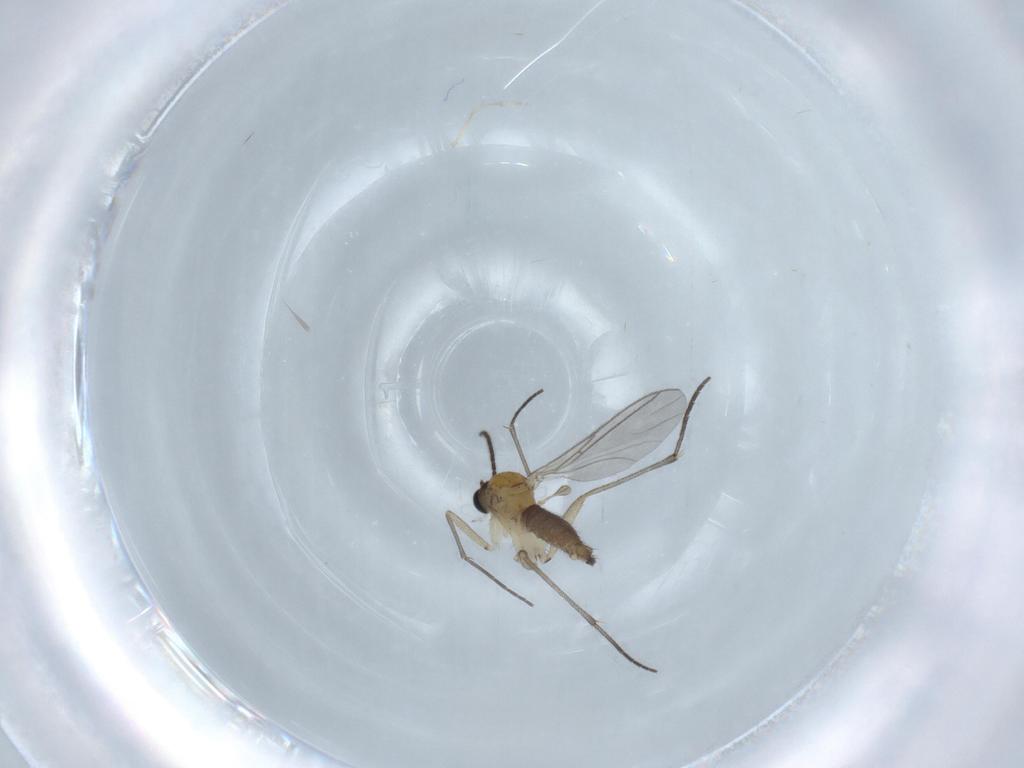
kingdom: Animalia
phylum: Arthropoda
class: Insecta
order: Diptera
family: Sciaridae
